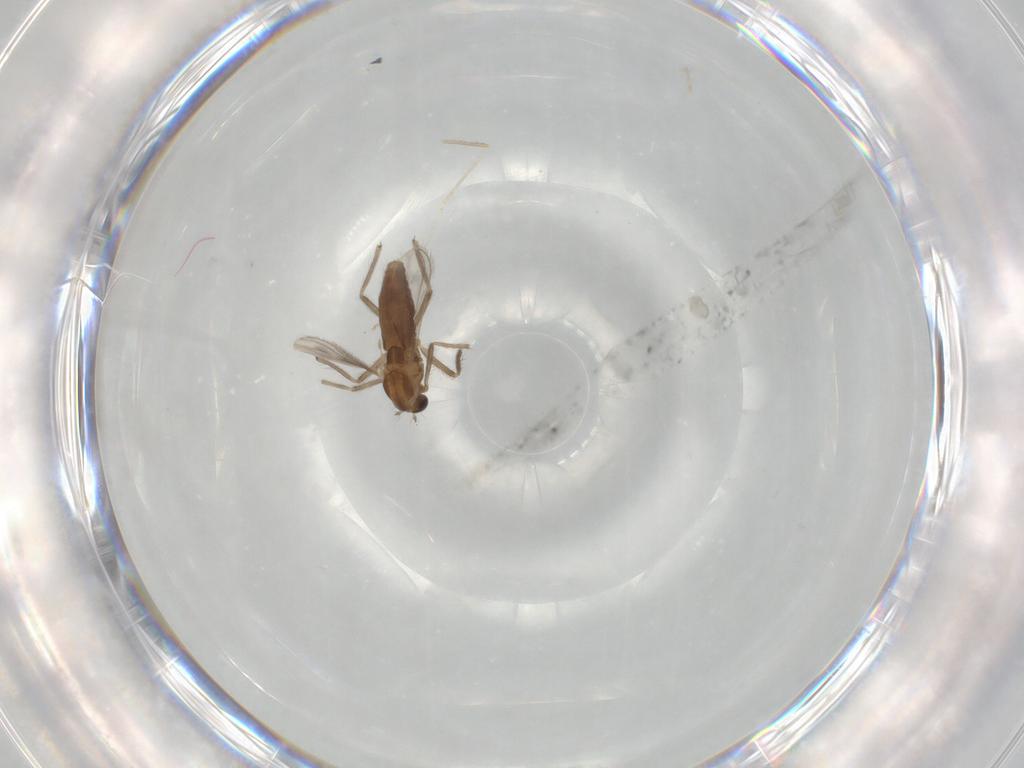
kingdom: Animalia
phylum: Arthropoda
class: Insecta
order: Diptera
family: Chironomidae
